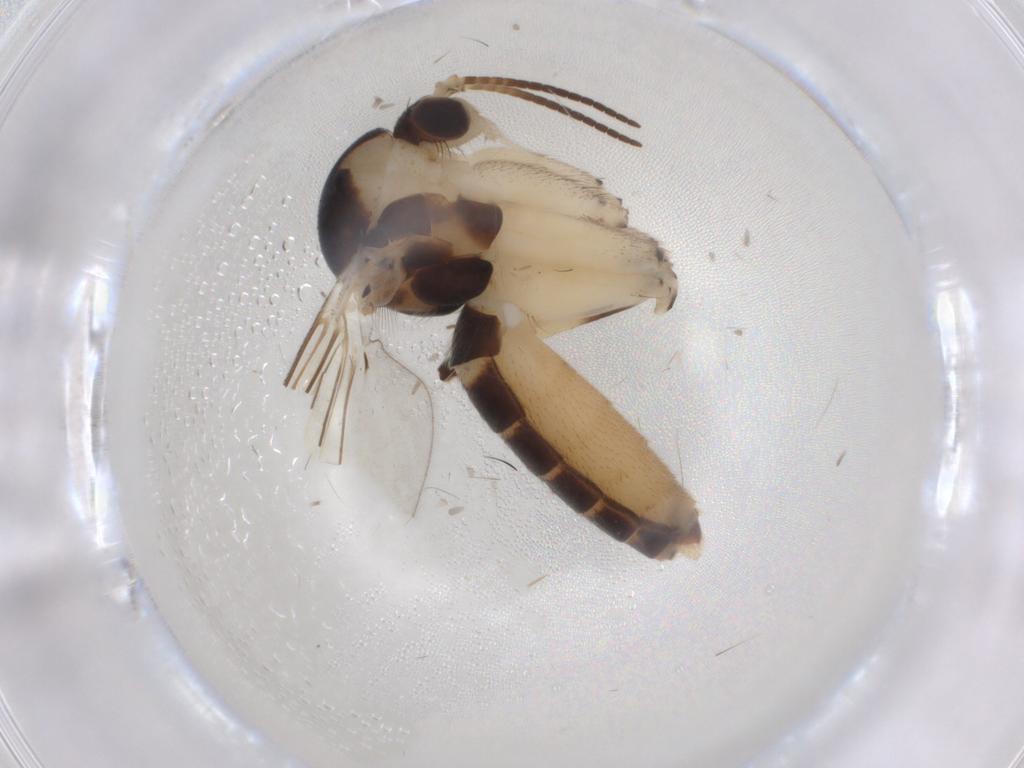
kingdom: Animalia
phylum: Arthropoda
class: Insecta
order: Diptera
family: Mycetophilidae
